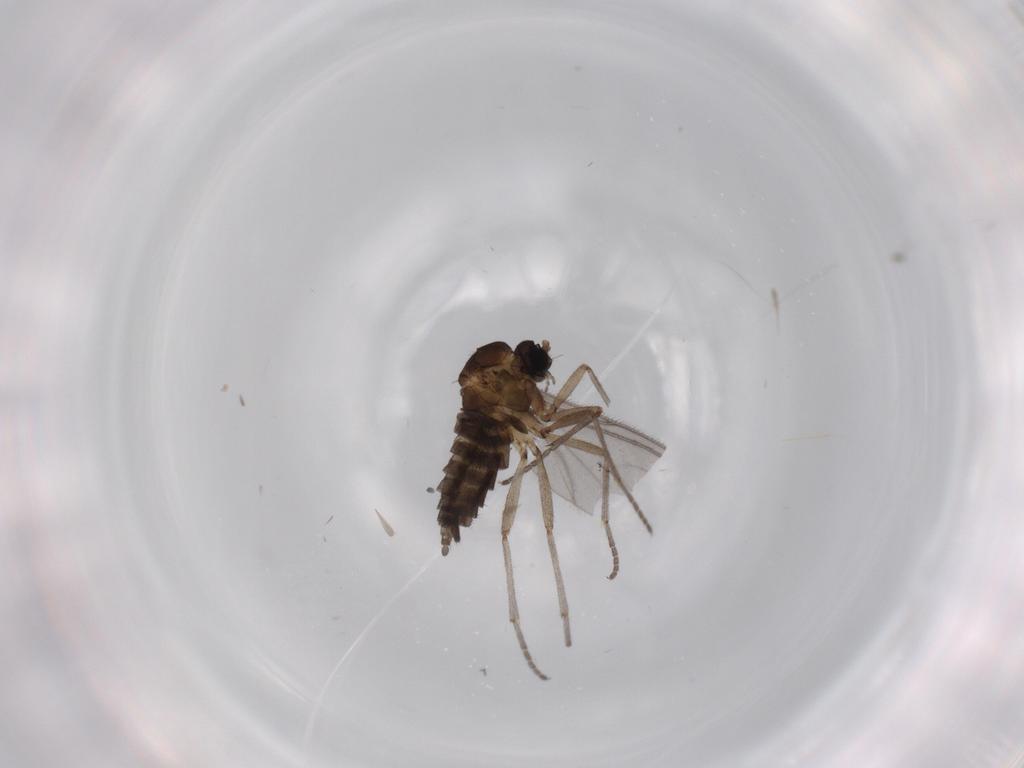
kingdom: Animalia
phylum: Arthropoda
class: Insecta
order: Diptera
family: Sciaridae
